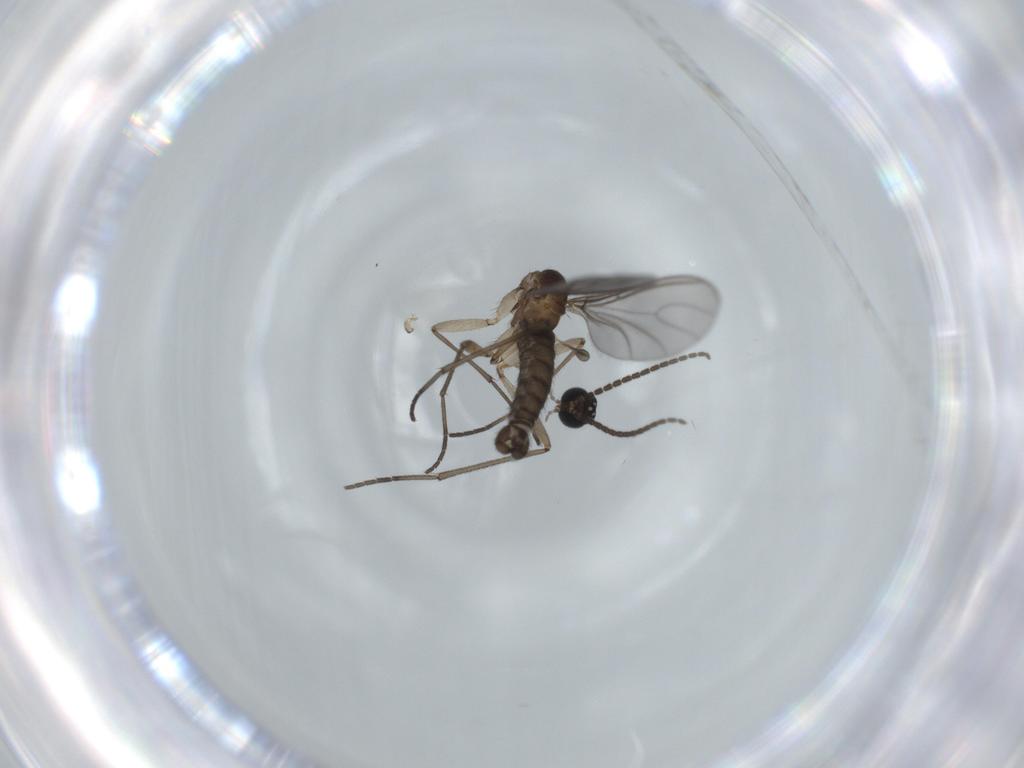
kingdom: Animalia
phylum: Arthropoda
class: Insecta
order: Diptera
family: Sciaridae
